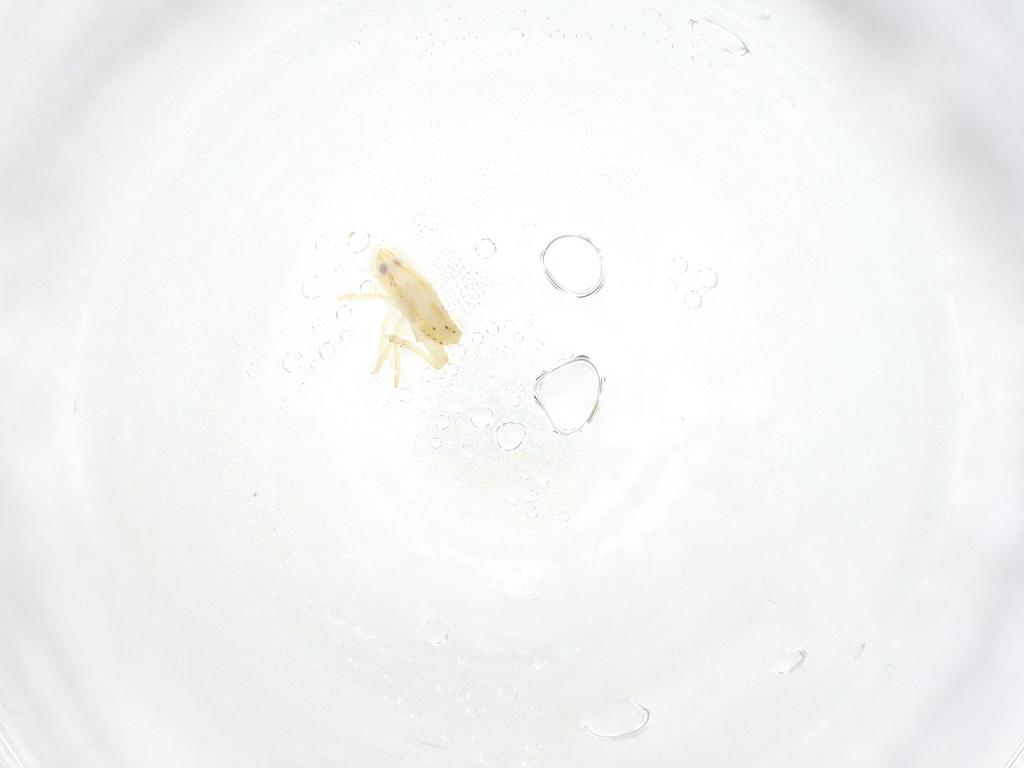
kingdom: Animalia
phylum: Arthropoda
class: Insecta
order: Hemiptera
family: Flatidae
